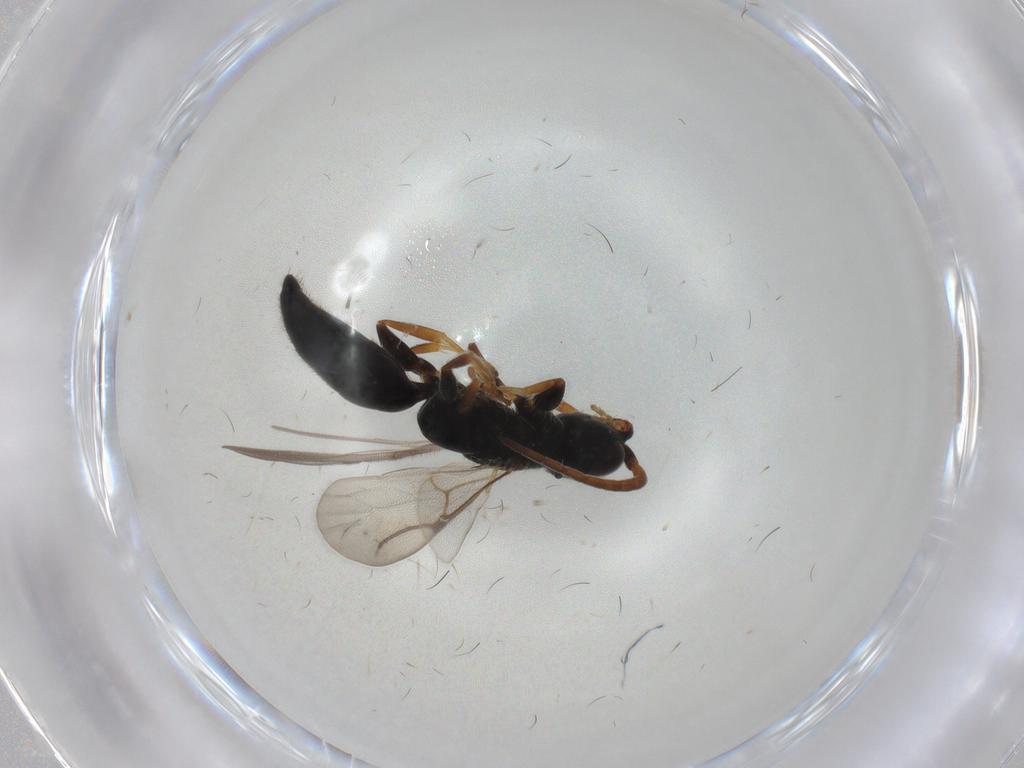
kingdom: Animalia
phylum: Arthropoda
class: Insecta
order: Hymenoptera
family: Bethylidae
